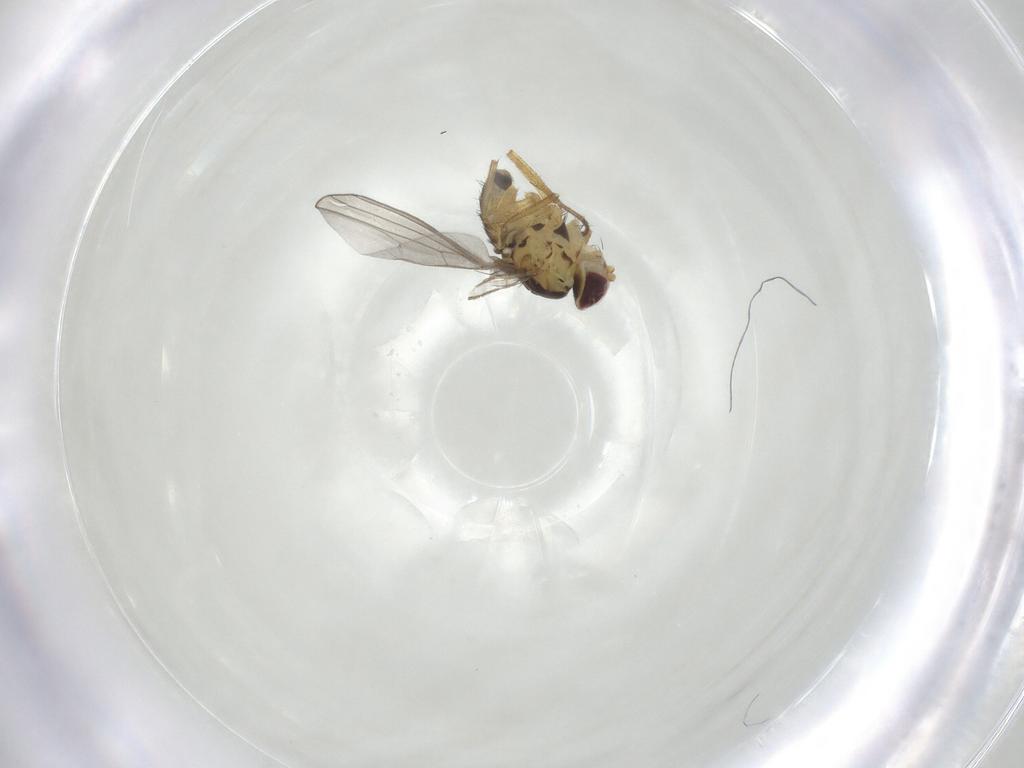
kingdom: Animalia
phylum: Arthropoda
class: Insecta
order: Diptera
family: Agromyzidae
